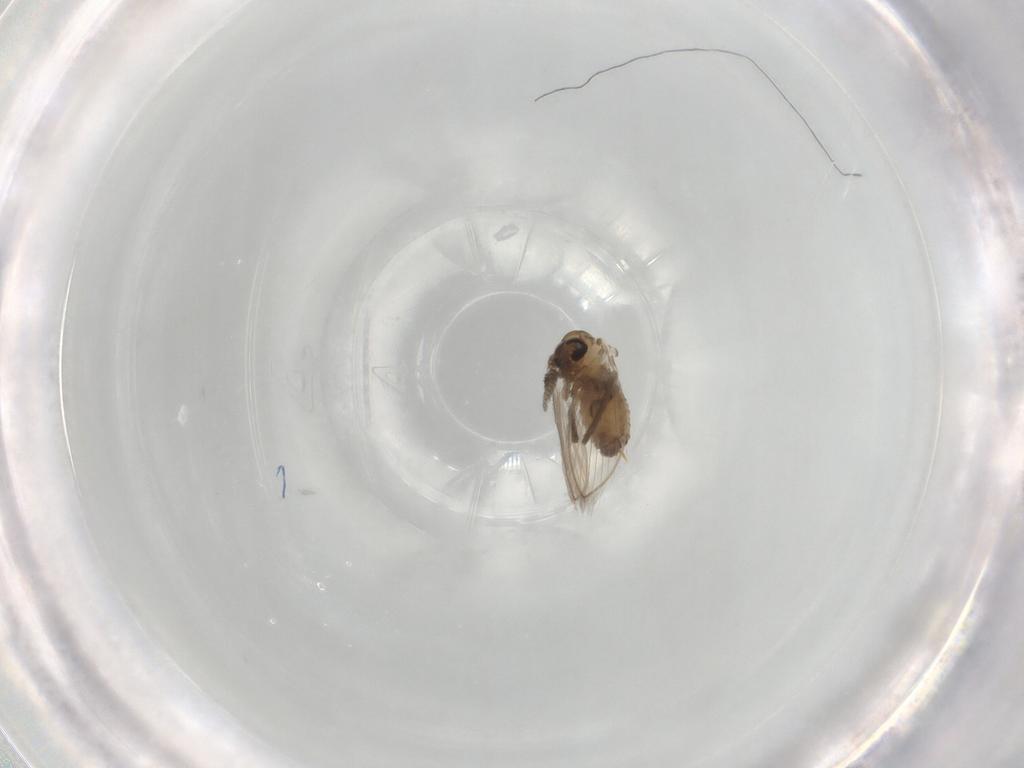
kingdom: Animalia
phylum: Arthropoda
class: Insecta
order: Diptera
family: Psychodidae
